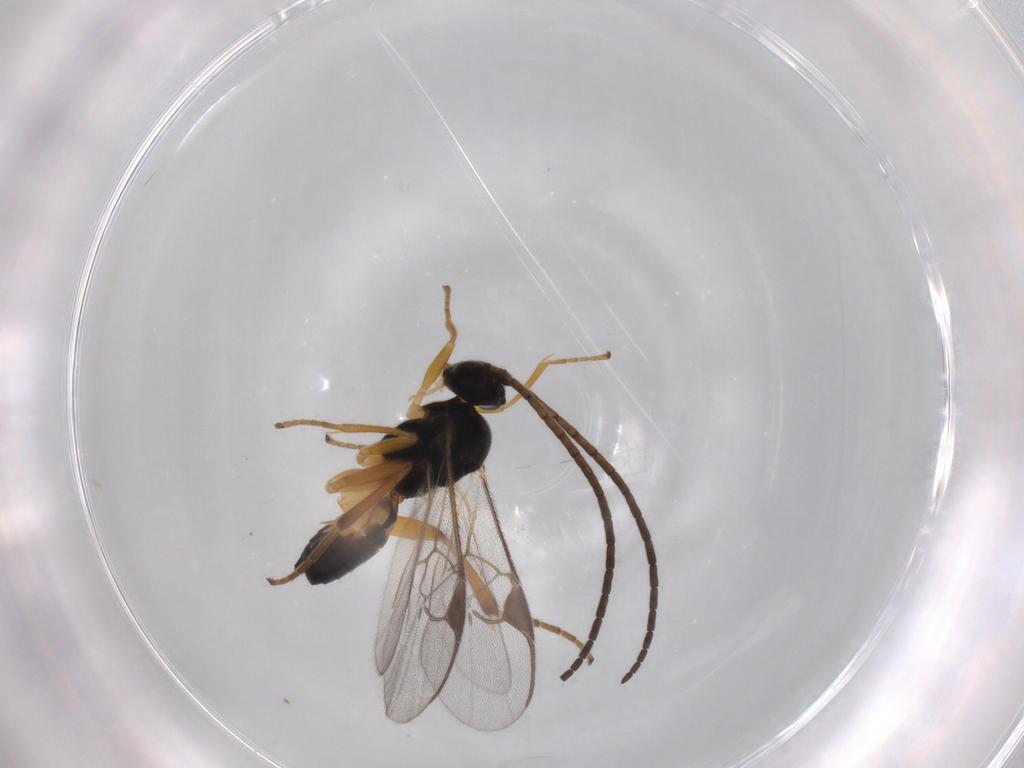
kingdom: Animalia
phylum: Arthropoda
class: Insecta
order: Hymenoptera
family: Braconidae
